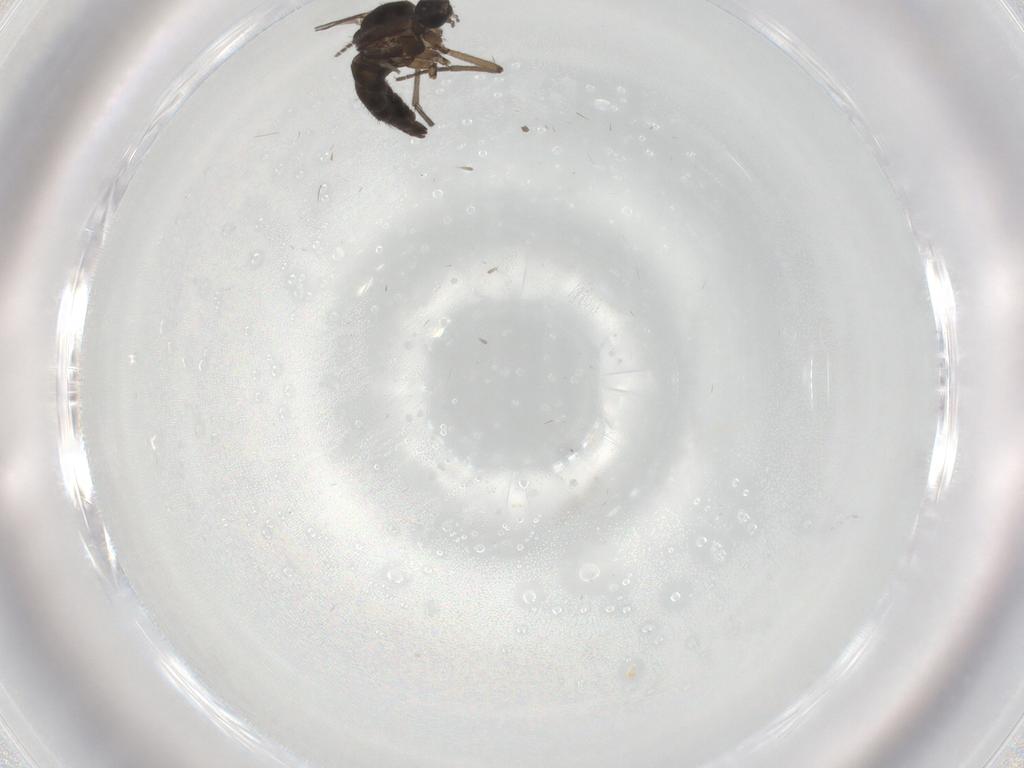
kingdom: Animalia
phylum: Arthropoda
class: Insecta
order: Diptera
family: Sciaridae
